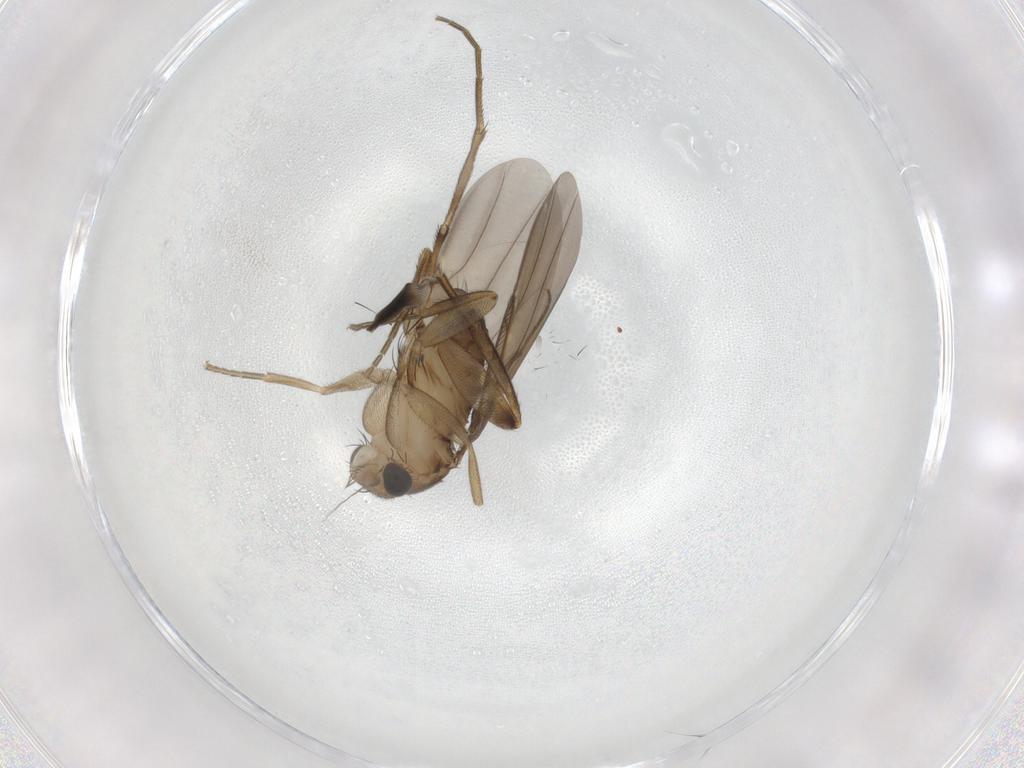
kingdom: Animalia
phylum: Arthropoda
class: Insecta
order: Diptera
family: Phoridae
